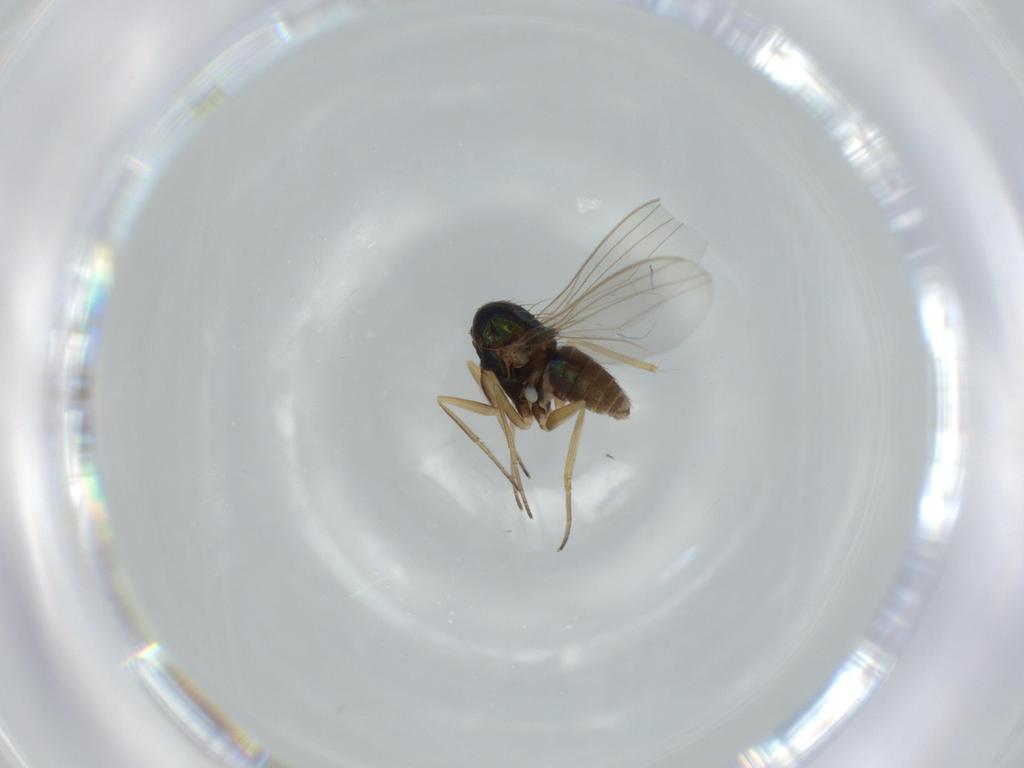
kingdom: Animalia
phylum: Arthropoda
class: Insecta
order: Diptera
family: Dolichopodidae
